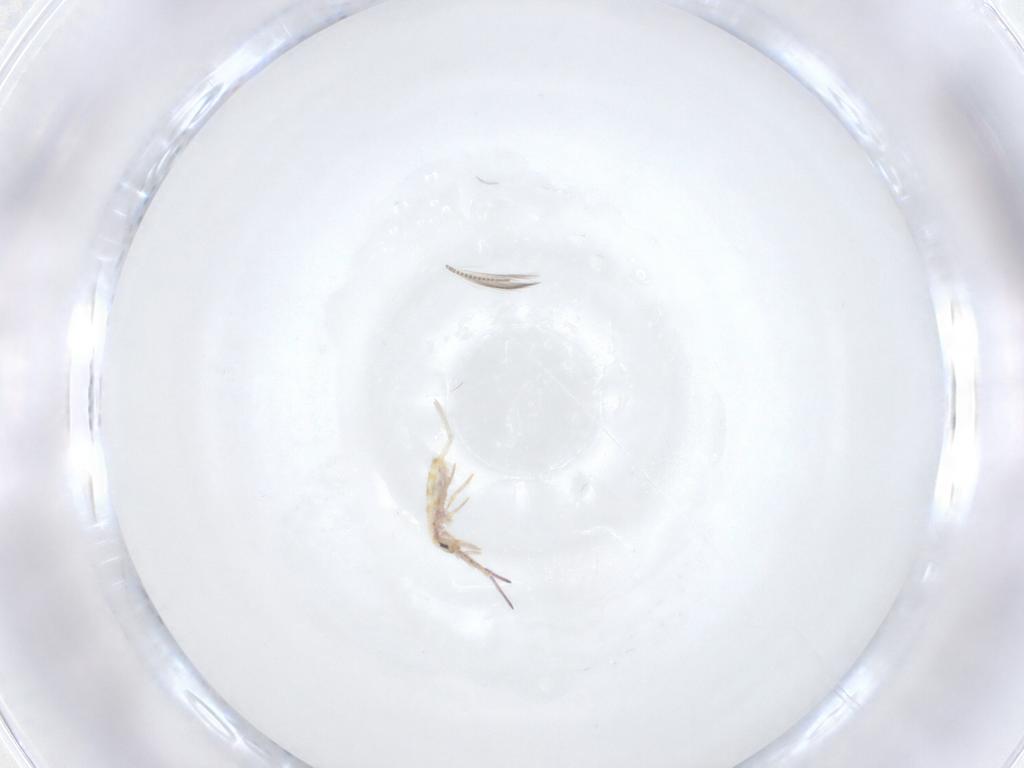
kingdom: Animalia
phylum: Arthropoda
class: Collembola
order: Entomobryomorpha
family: Entomobryidae
